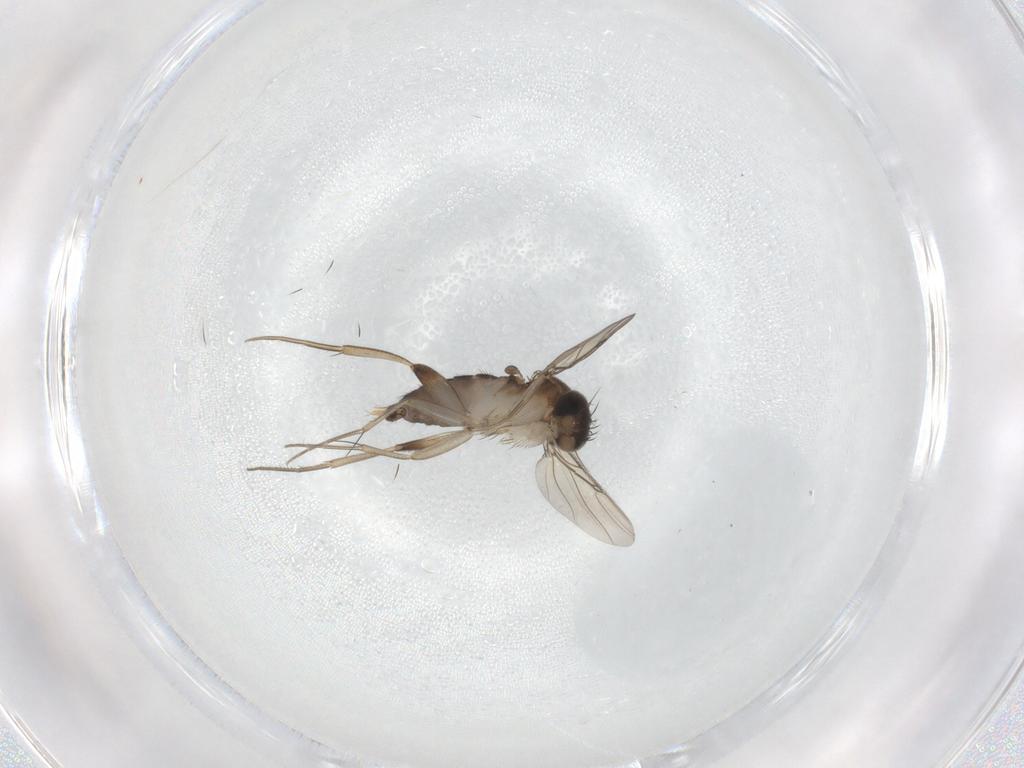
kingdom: Animalia
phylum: Arthropoda
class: Insecta
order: Diptera
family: Phoridae
